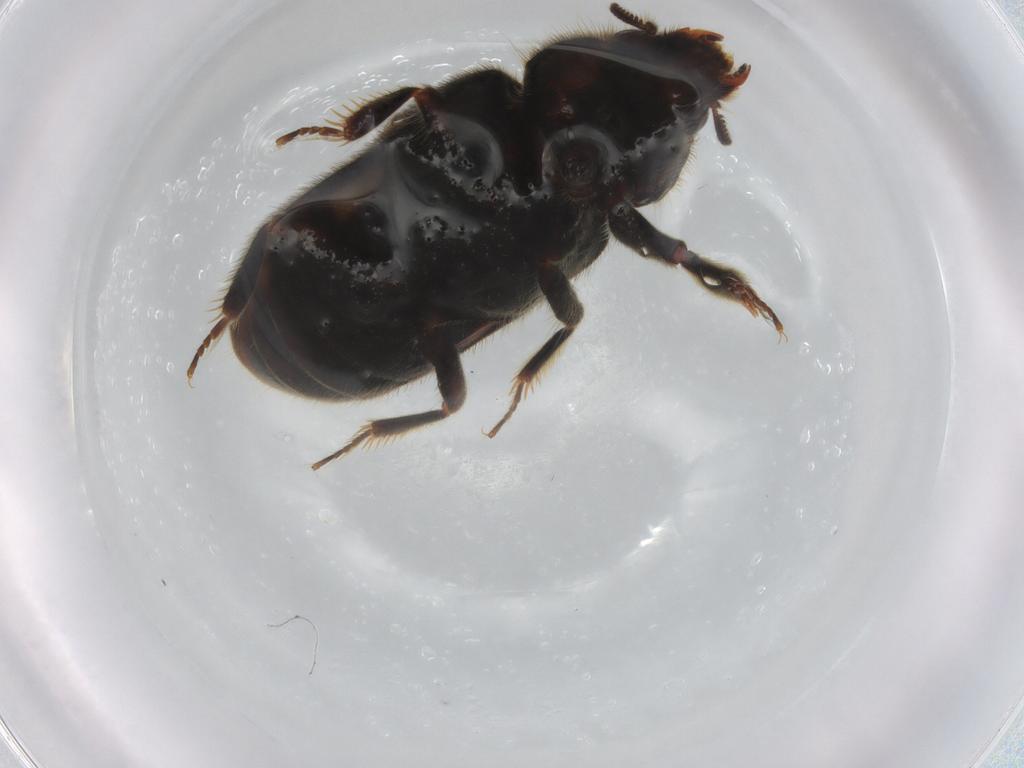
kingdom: Animalia
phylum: Arthropoda
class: Insecta
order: Coleoptera
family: Heteroceridae
